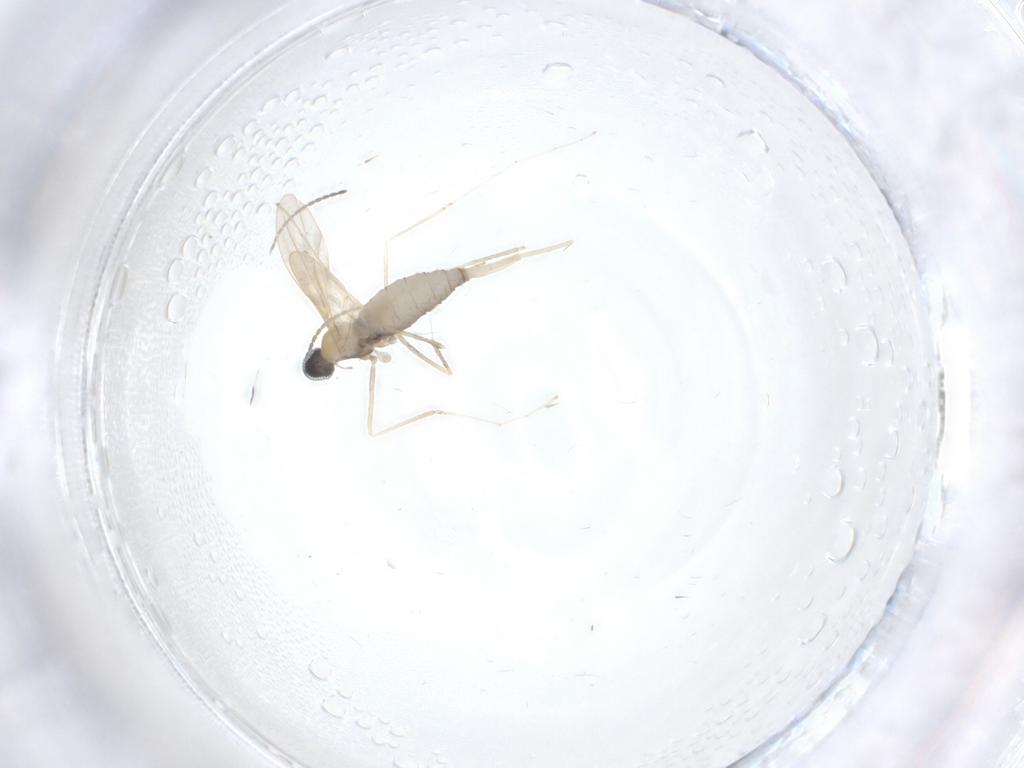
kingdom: Animalia
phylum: Arthropoda
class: Insecta
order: Diptera
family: Cecidomyiidae
